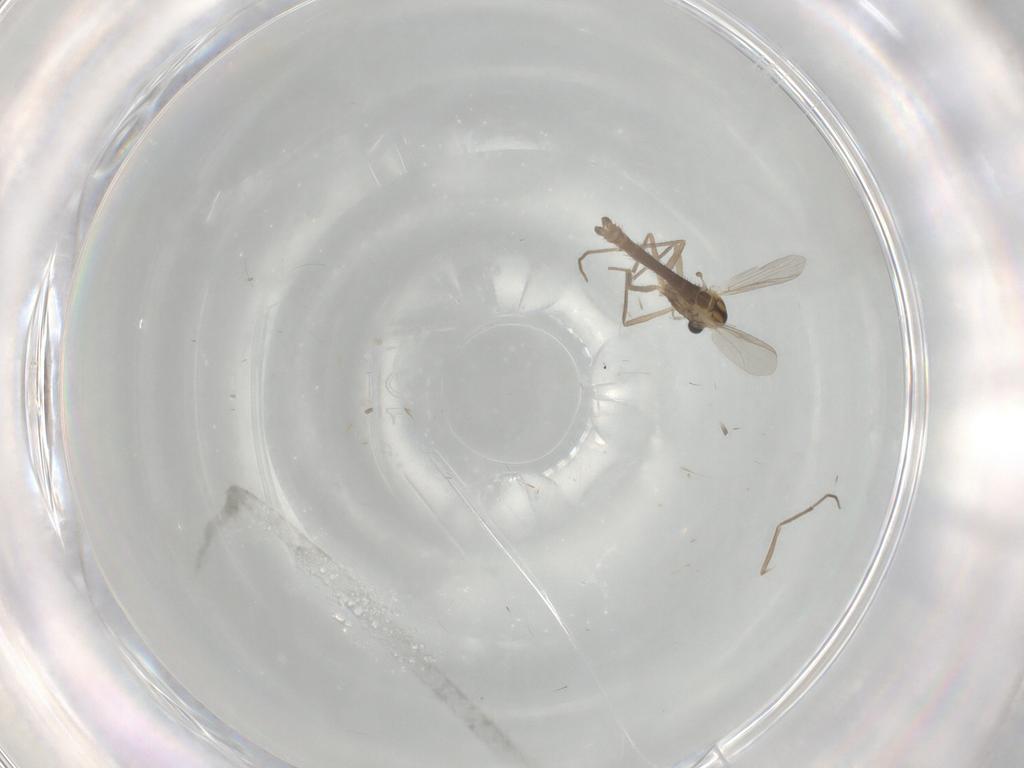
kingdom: Animalia
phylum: Arthropoda
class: Insecta
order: Diptera
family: Chironomidae
